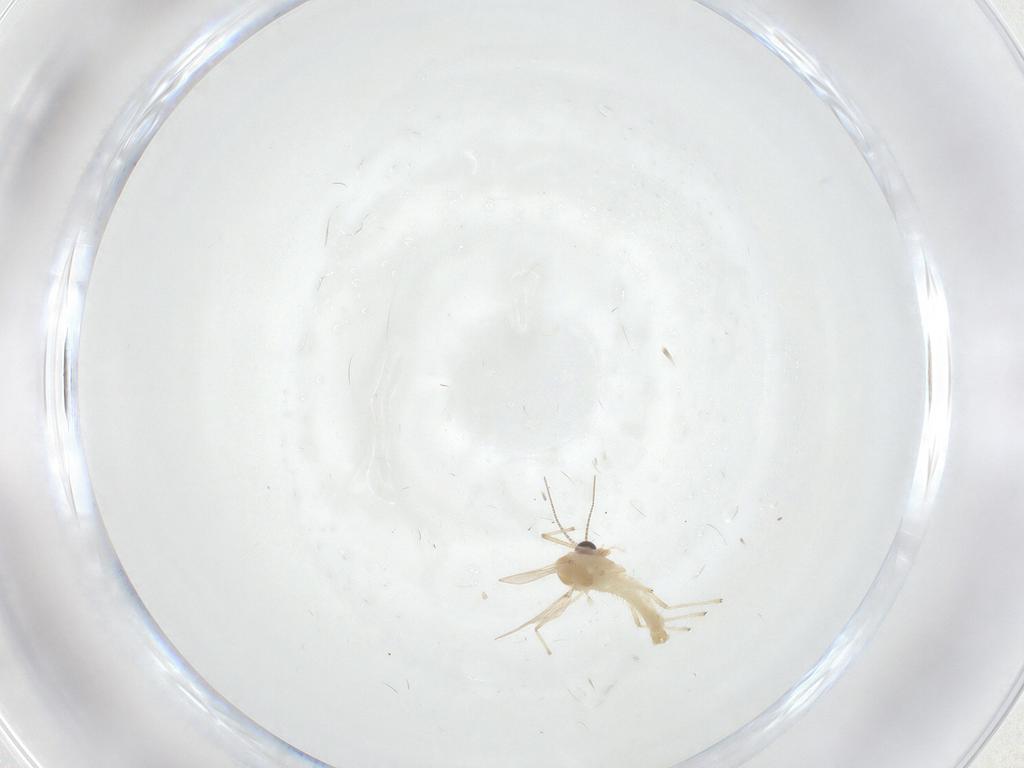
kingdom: Animalia
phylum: Arthropoda
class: Insecta
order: Diptera
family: Chironomidae
